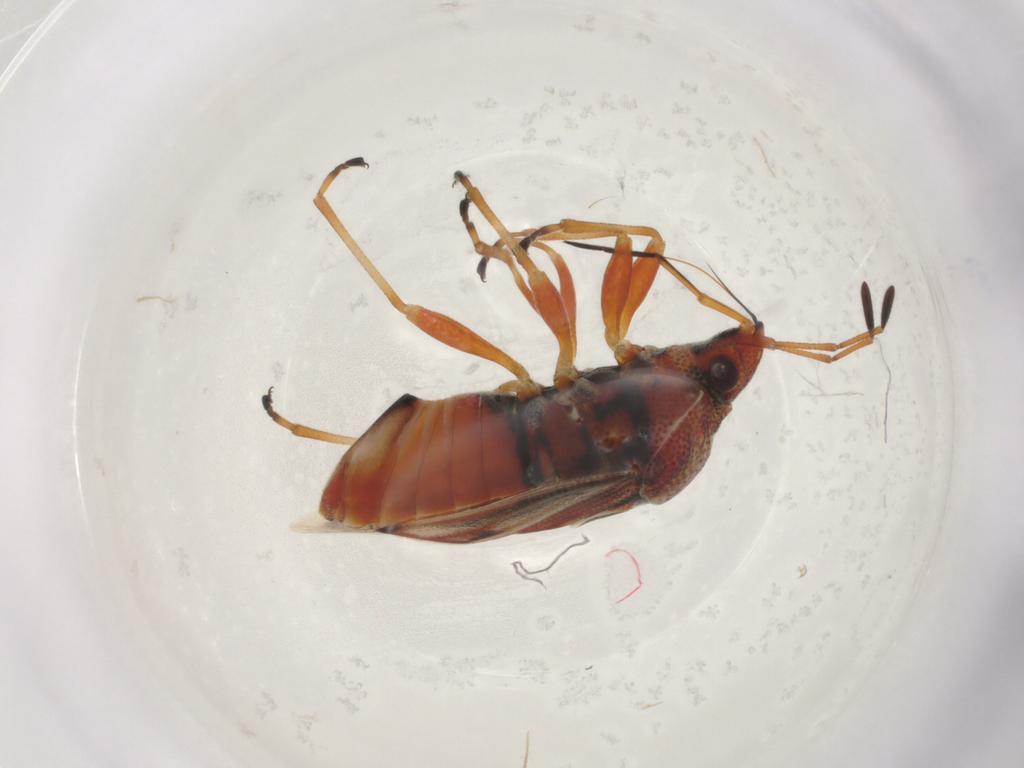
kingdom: Animalia
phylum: Arthropoda
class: Insecta
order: Hemiptera
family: Lygaeidae
